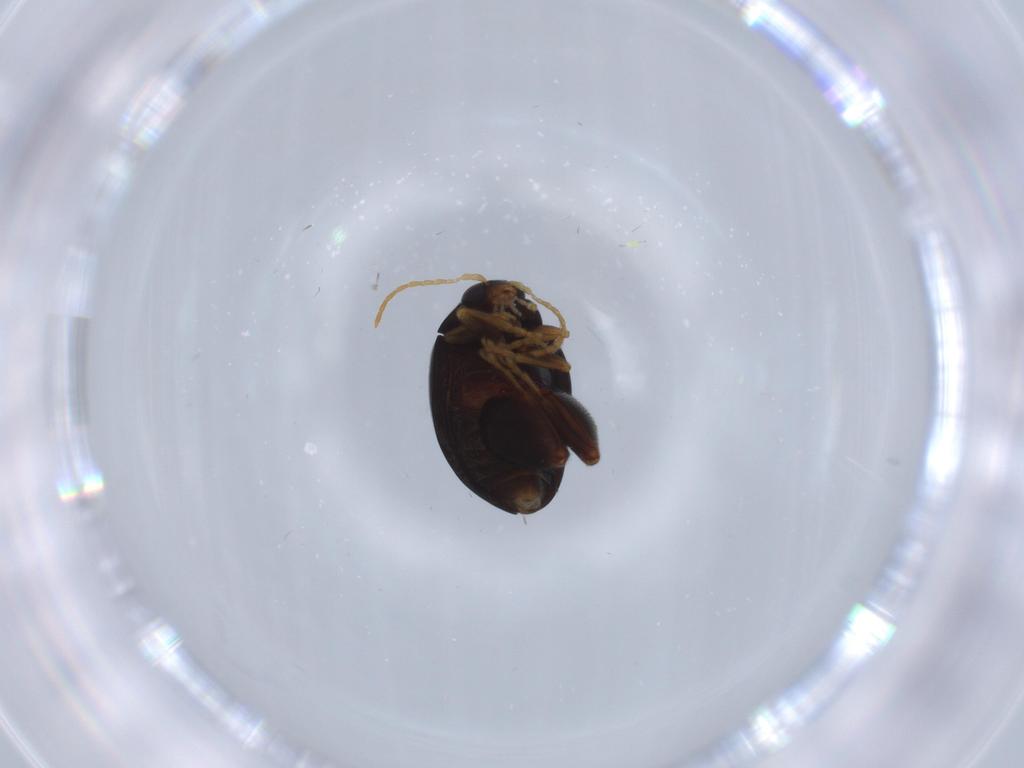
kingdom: Animalia
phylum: Arthropoda
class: Insecta
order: Coleoptera
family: Chrysomelidae
